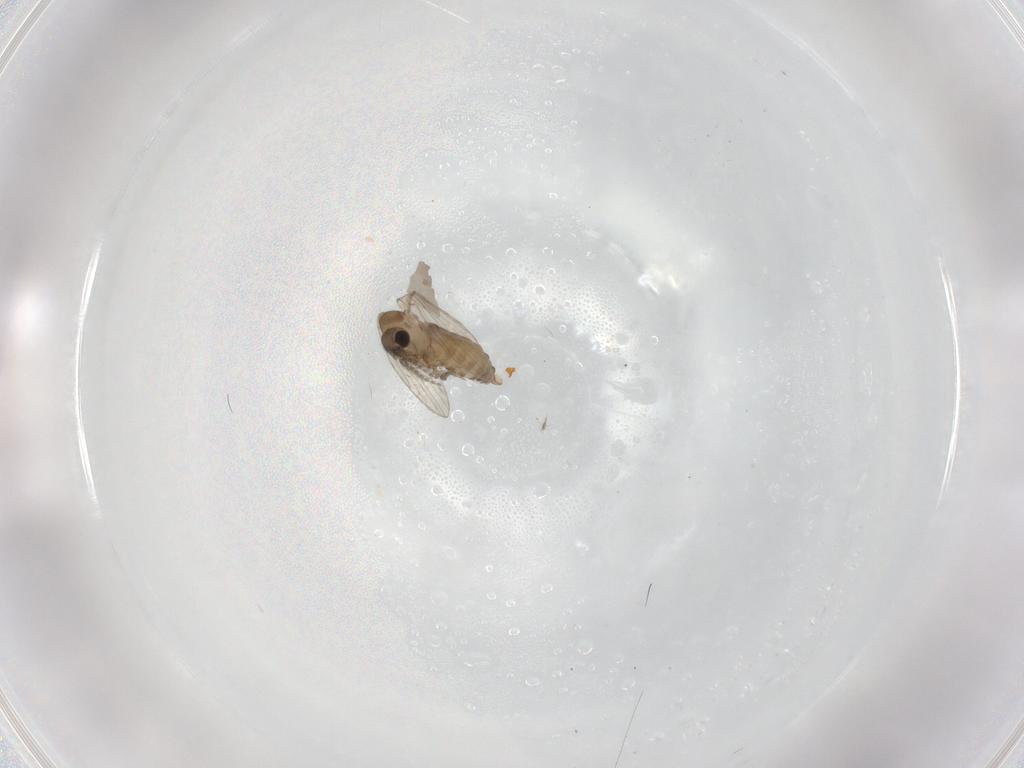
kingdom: Animalia
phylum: Arthropoda
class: Insecta
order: Diptera
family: Psychodidae
